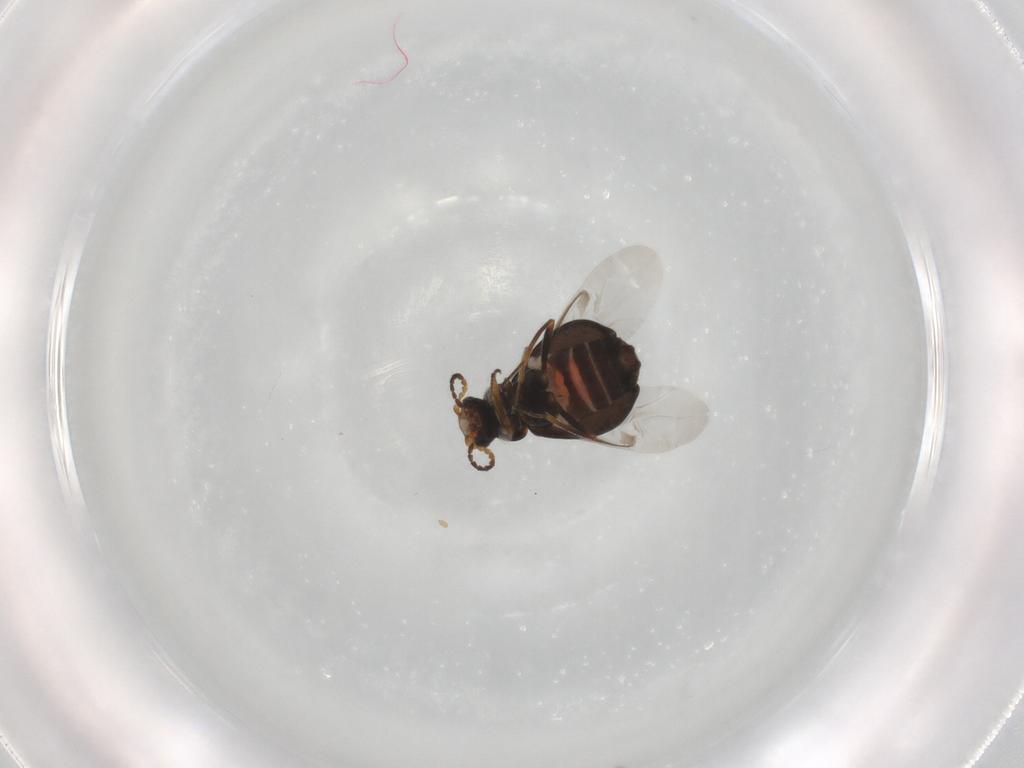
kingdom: Animalia
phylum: Arthropoda
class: Insecta
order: Coleoptera
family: Melyridae
